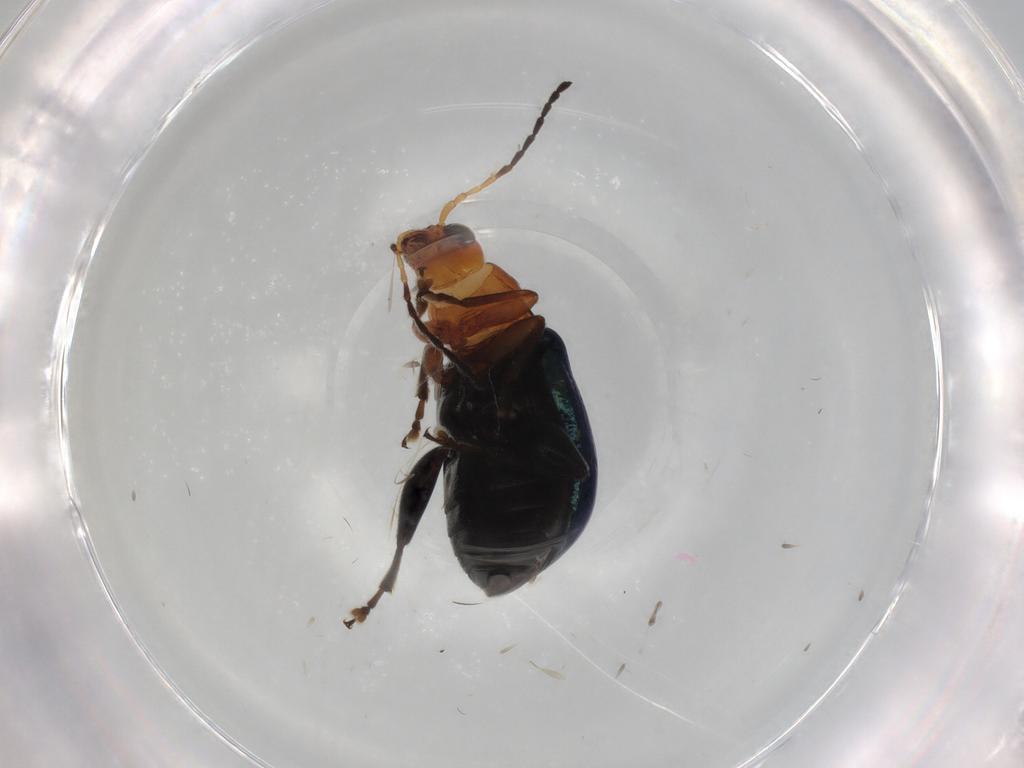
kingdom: Animalia
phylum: Arthropoda
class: Insecta
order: Coleoptera
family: Chrysomelidae
